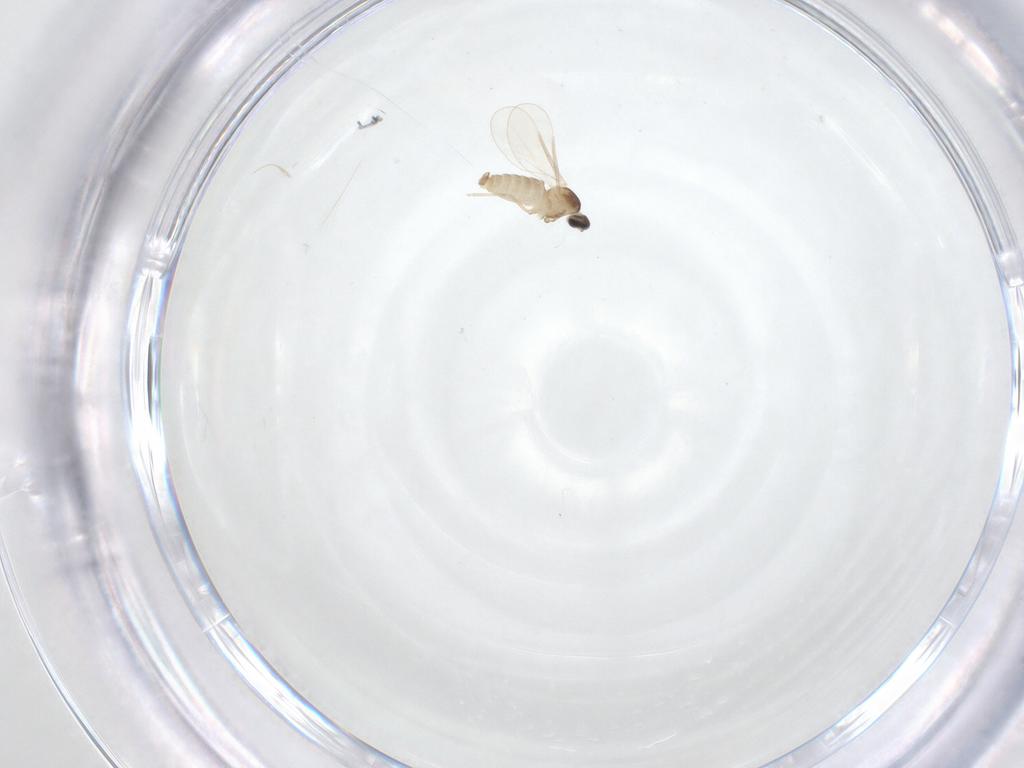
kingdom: Animalia
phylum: Arthropoda
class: Insecta
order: Diptera
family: Cecidomyiidae
